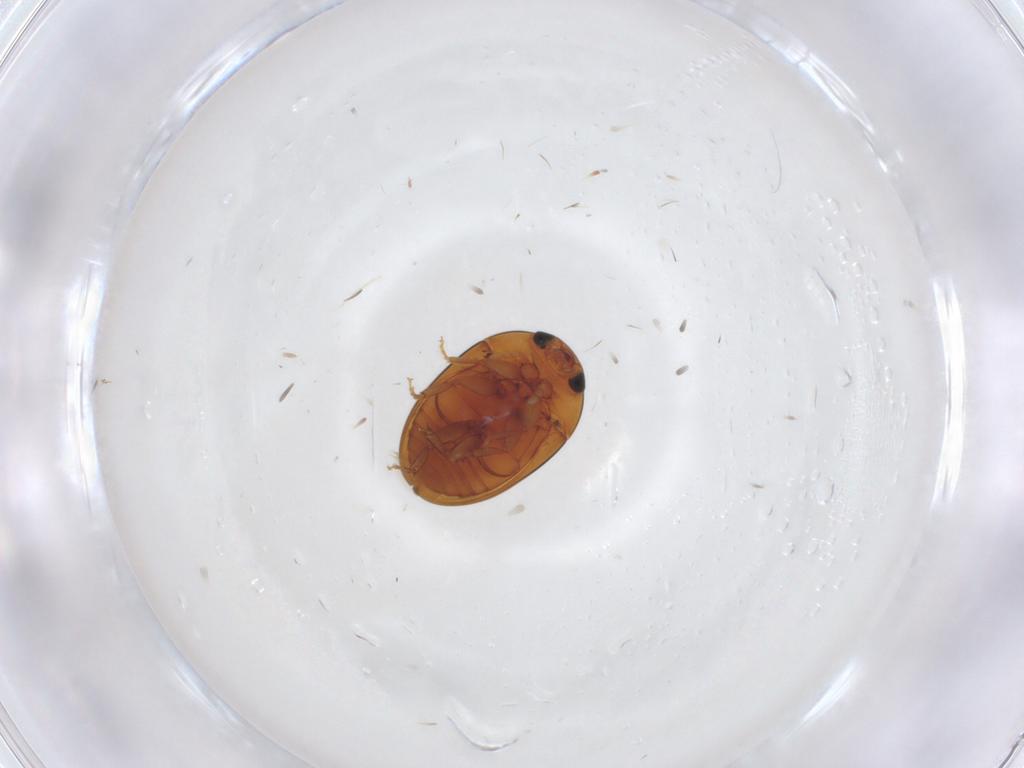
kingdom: Animalia
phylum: Arthropoda
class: Insecta
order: Coleoptera
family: Phalacridae
